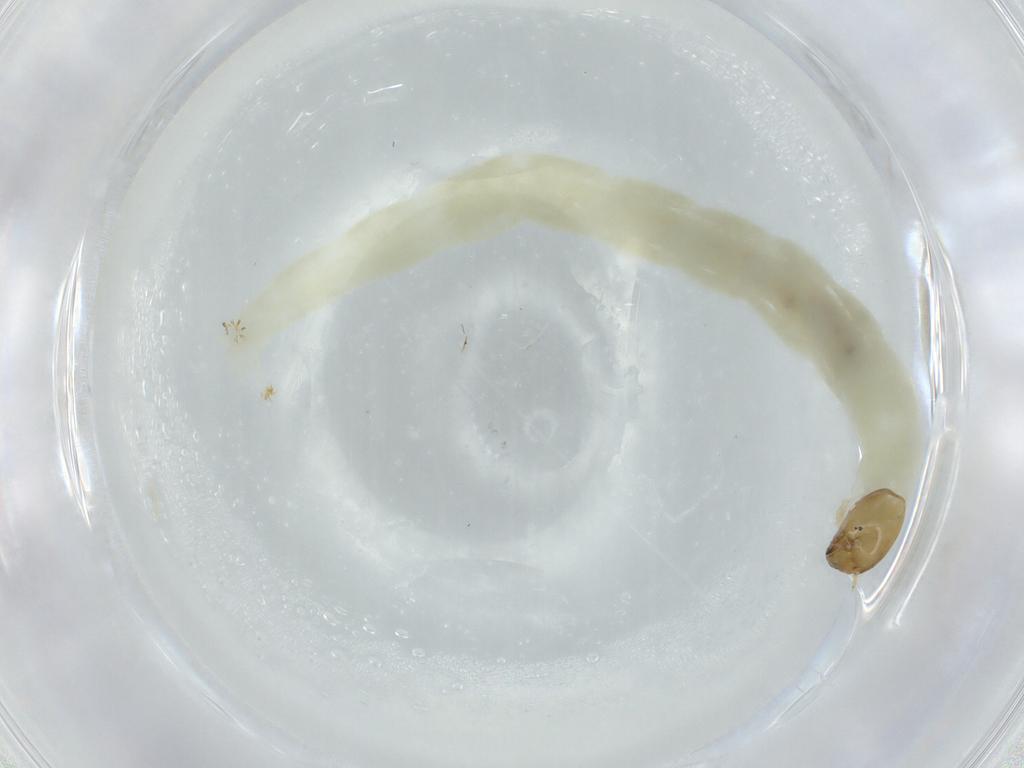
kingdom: Animalia
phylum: Arthropoda
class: Insecta
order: Diptera
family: Chironomidae
